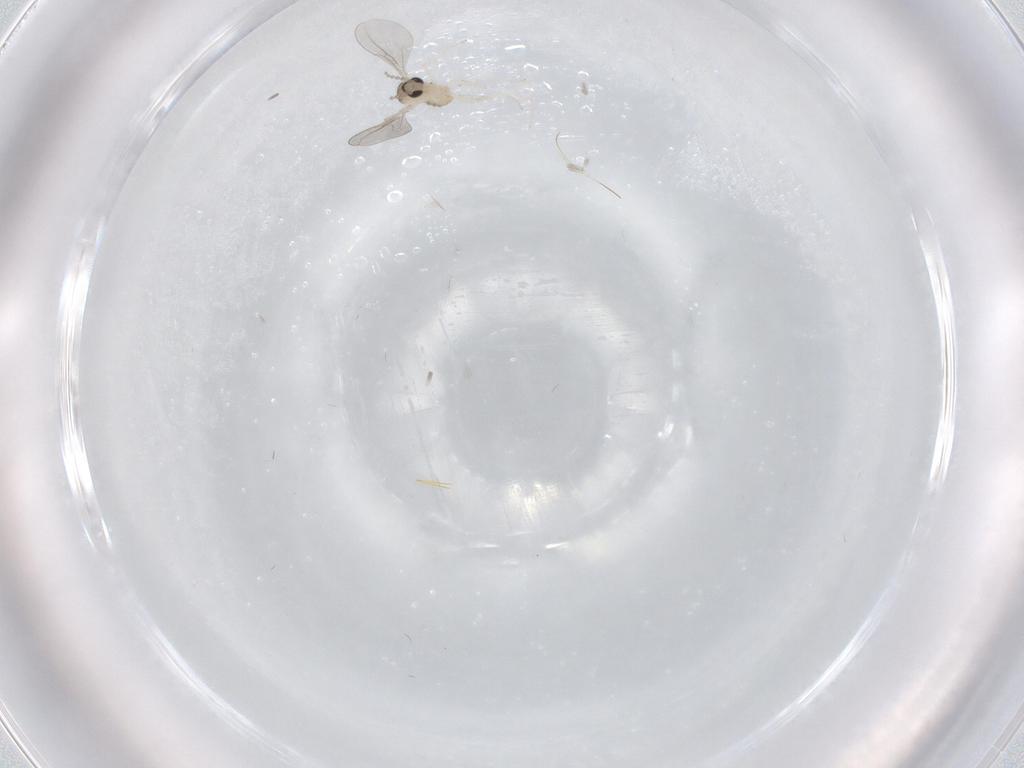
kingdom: Animalia
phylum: Arthropoda
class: Insecta
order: Diptera
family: Cecidomyiidae
